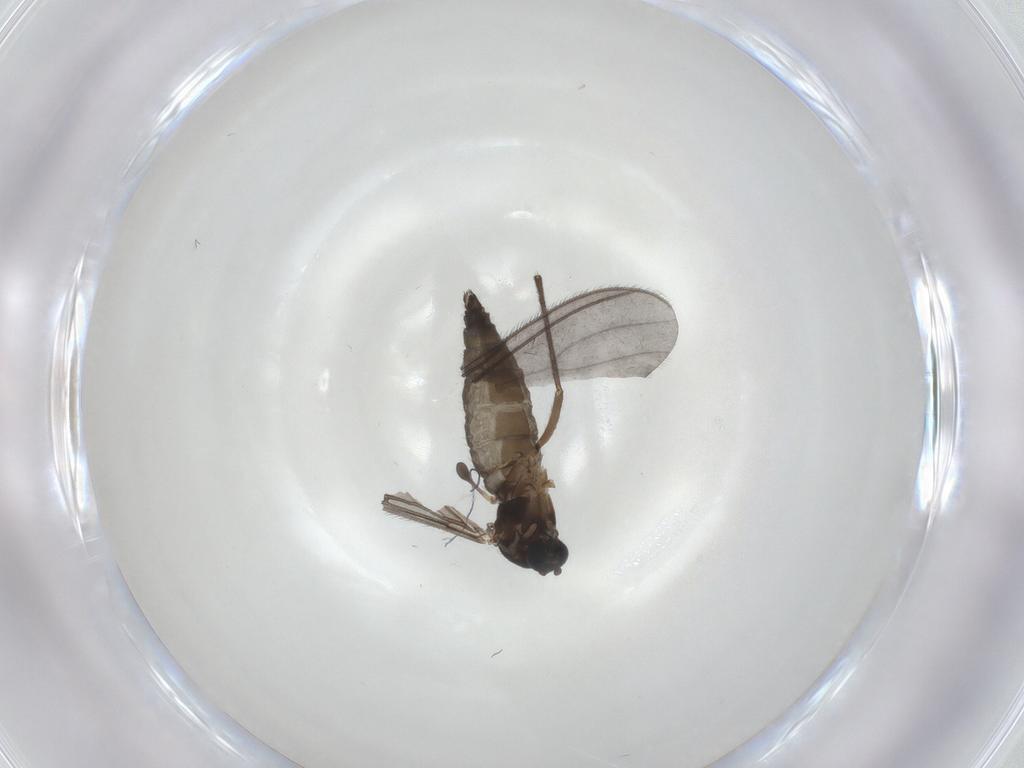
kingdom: Animalia
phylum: Arthropoda
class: Insecta
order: Diptera
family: Sciaridae
